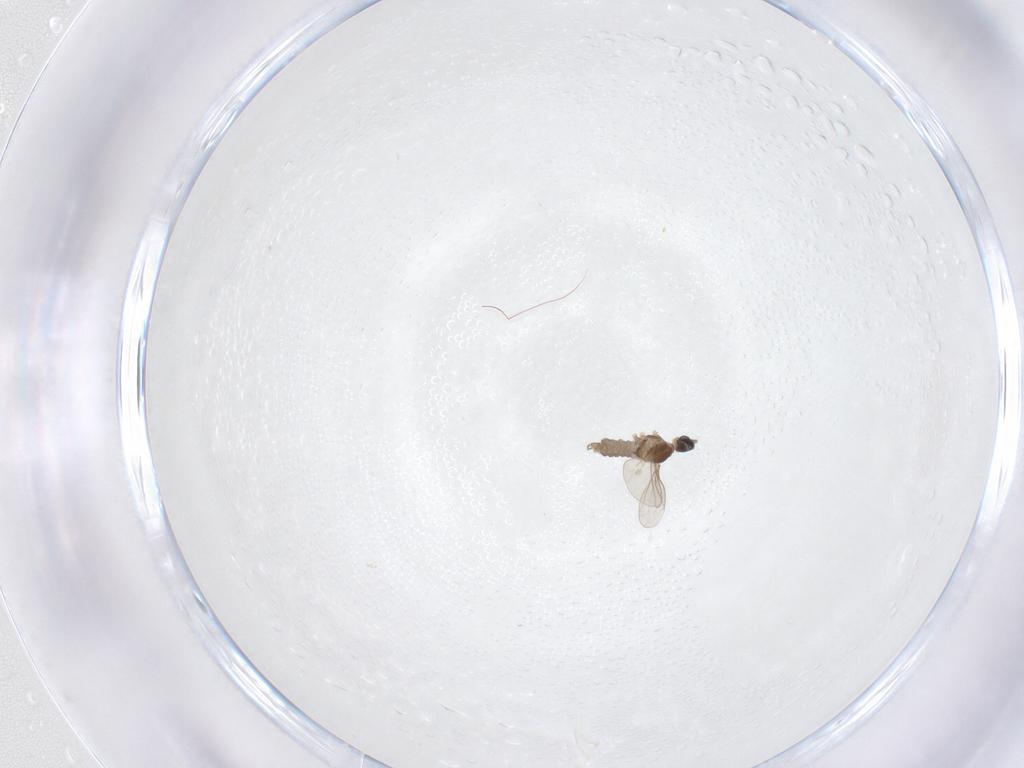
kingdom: Animalia
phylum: Arthropoda
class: Insecta
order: Diptera
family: Cecidomyiidae
